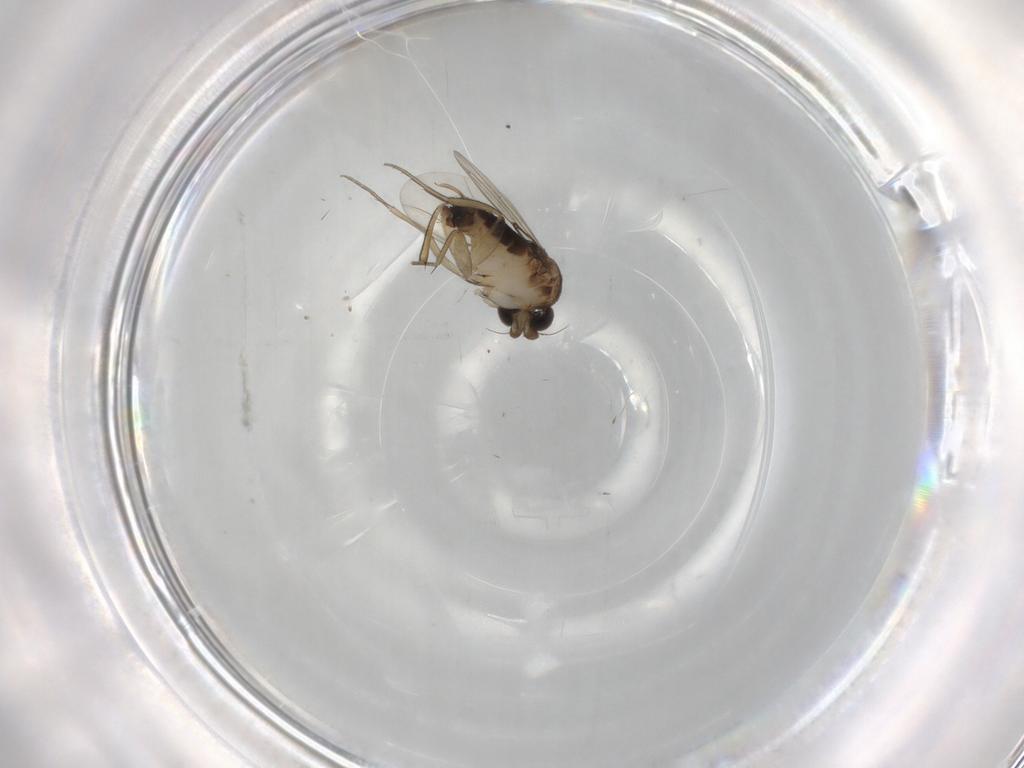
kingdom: Animalia
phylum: Arthropoda
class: Insecta
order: Diptera
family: Phoridae
